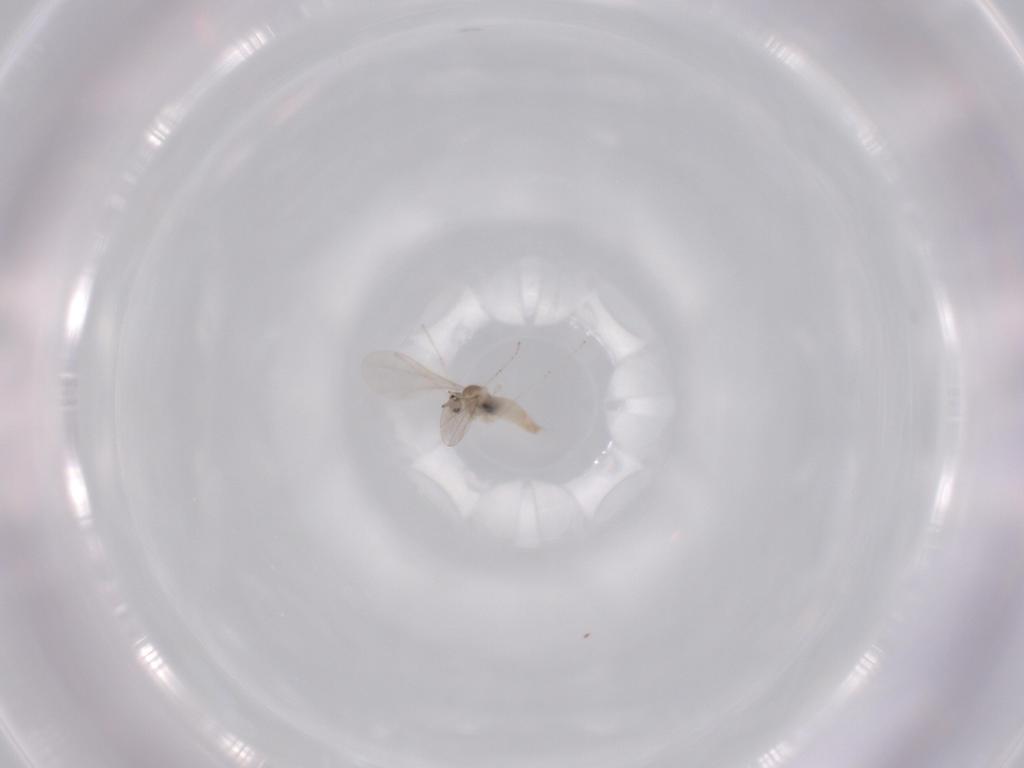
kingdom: Animalia
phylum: Arthropoda
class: Insecta
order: Diptera
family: Cecidomyiidae
